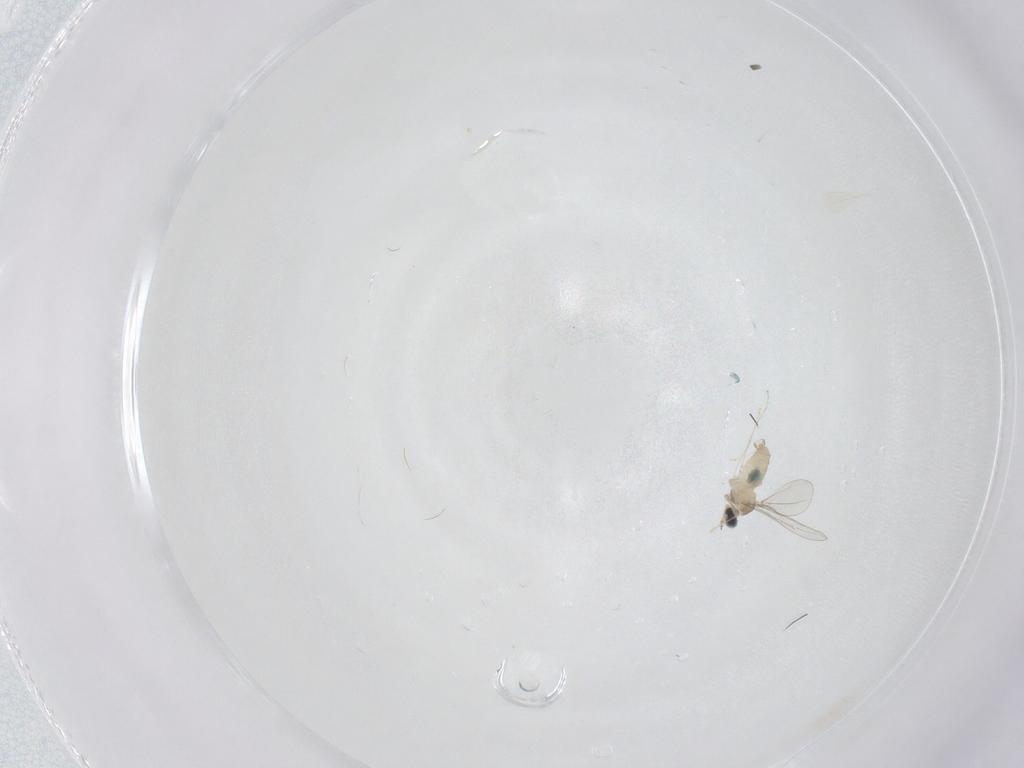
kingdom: Animalia
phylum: Arthropoda
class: Insecta
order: Diptera
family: Cecidomyiidae
